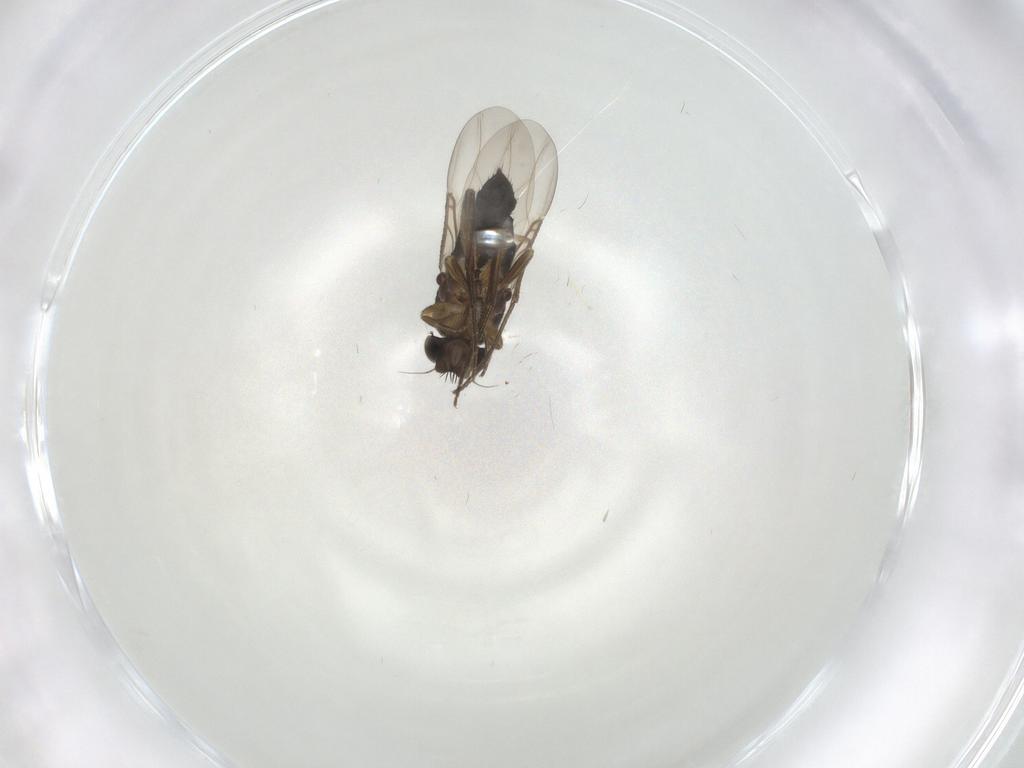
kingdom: Animalia
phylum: Arthropoda
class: Insecta
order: Diptera
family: Phoridae
